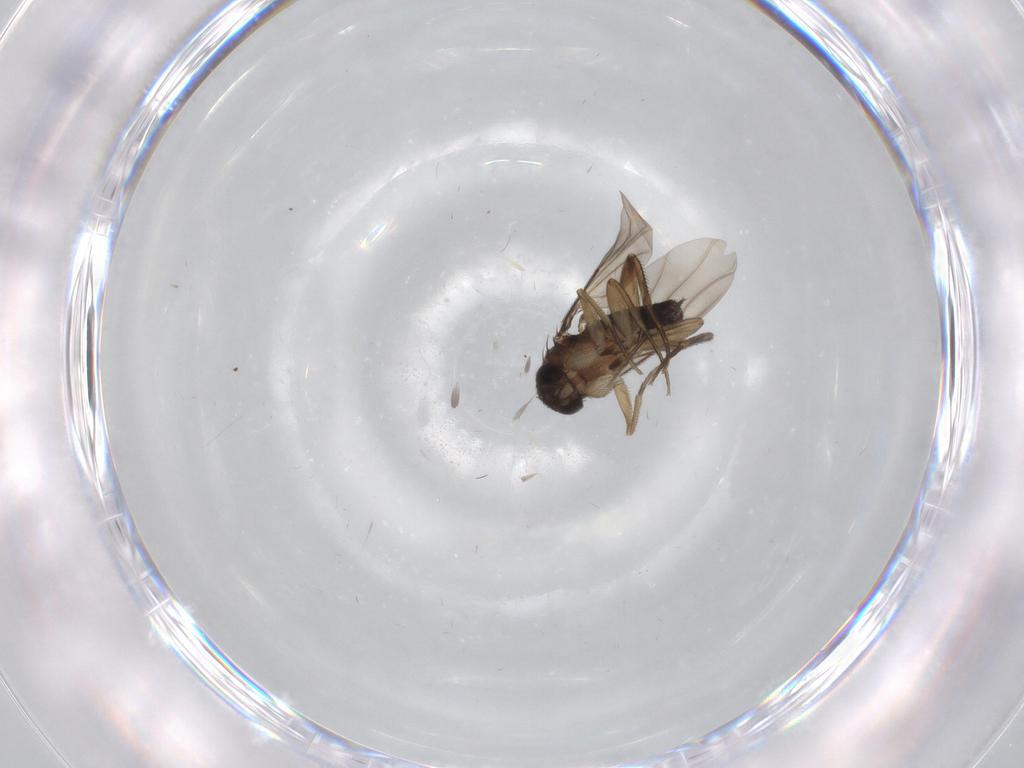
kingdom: Animalia
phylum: Arthropoda
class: Insecta
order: Diptera
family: Phoridae
